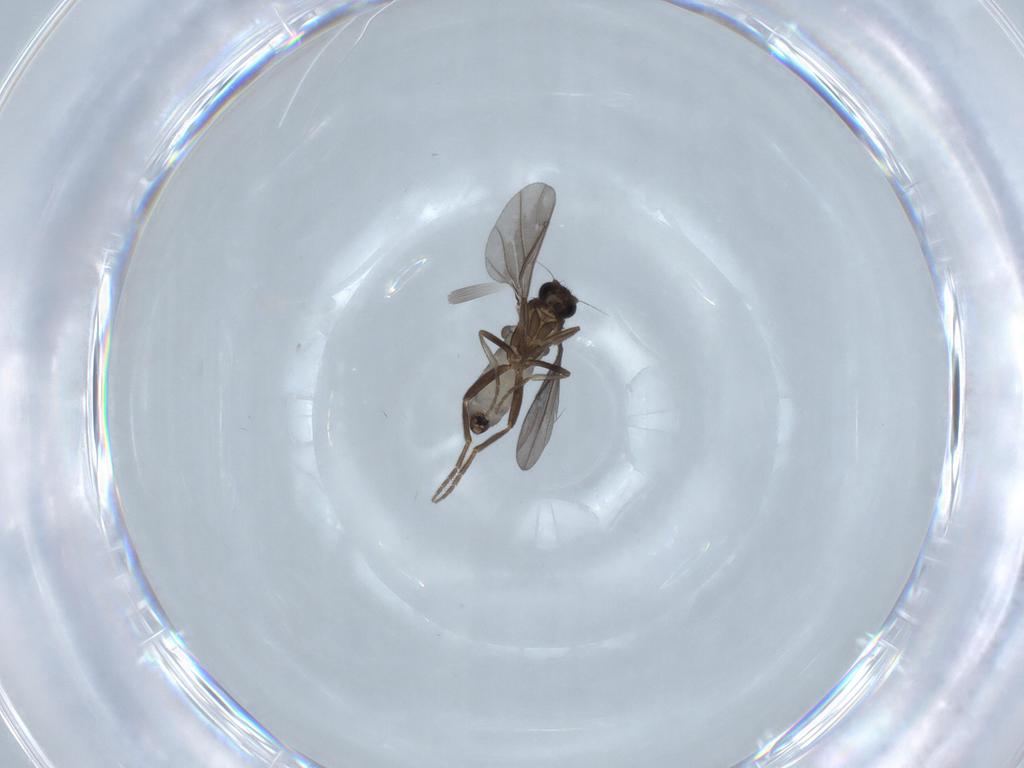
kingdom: Animalia
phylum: Arthropoda
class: Insecta
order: Diptera
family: Phoridae
